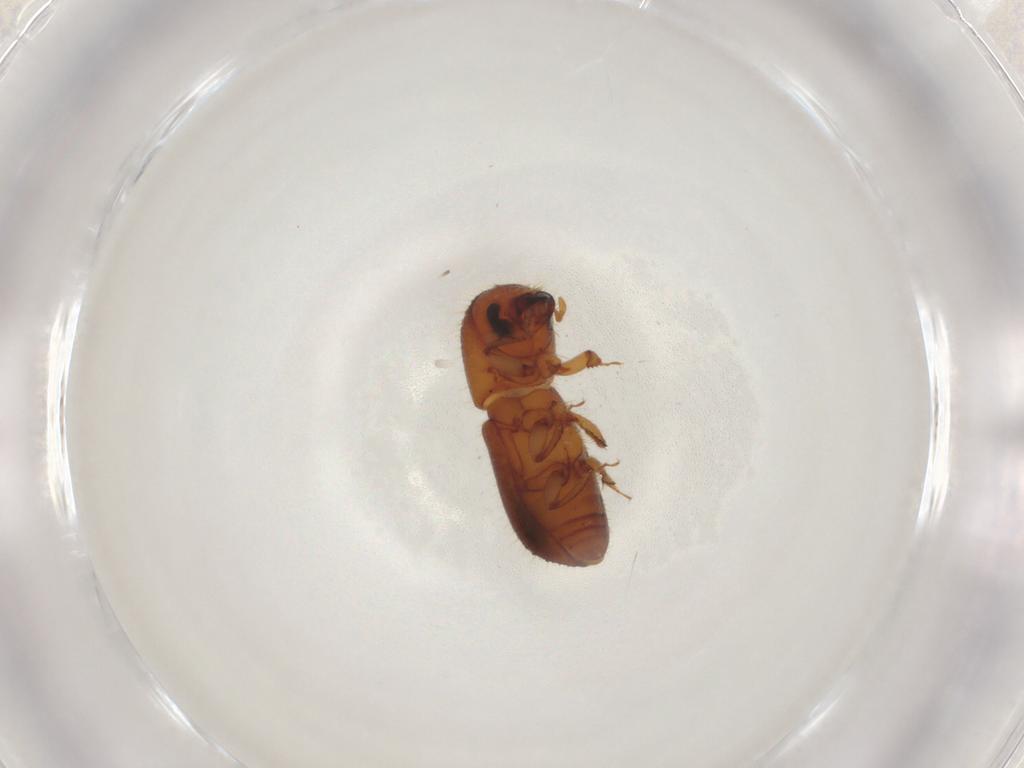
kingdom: Animalia
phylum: Arthropoda
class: Insecta
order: Coleoptera
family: Curculionidae
